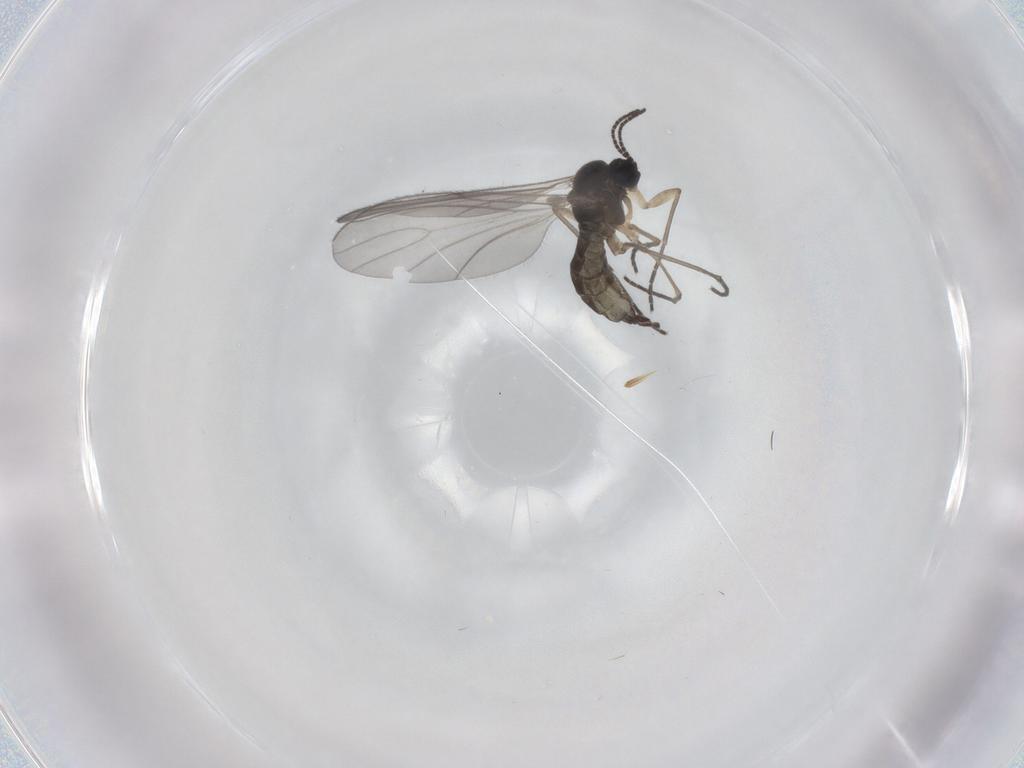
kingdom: Animalia
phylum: Arthropoda
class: Insecta
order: Diptera
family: Sciaridae
